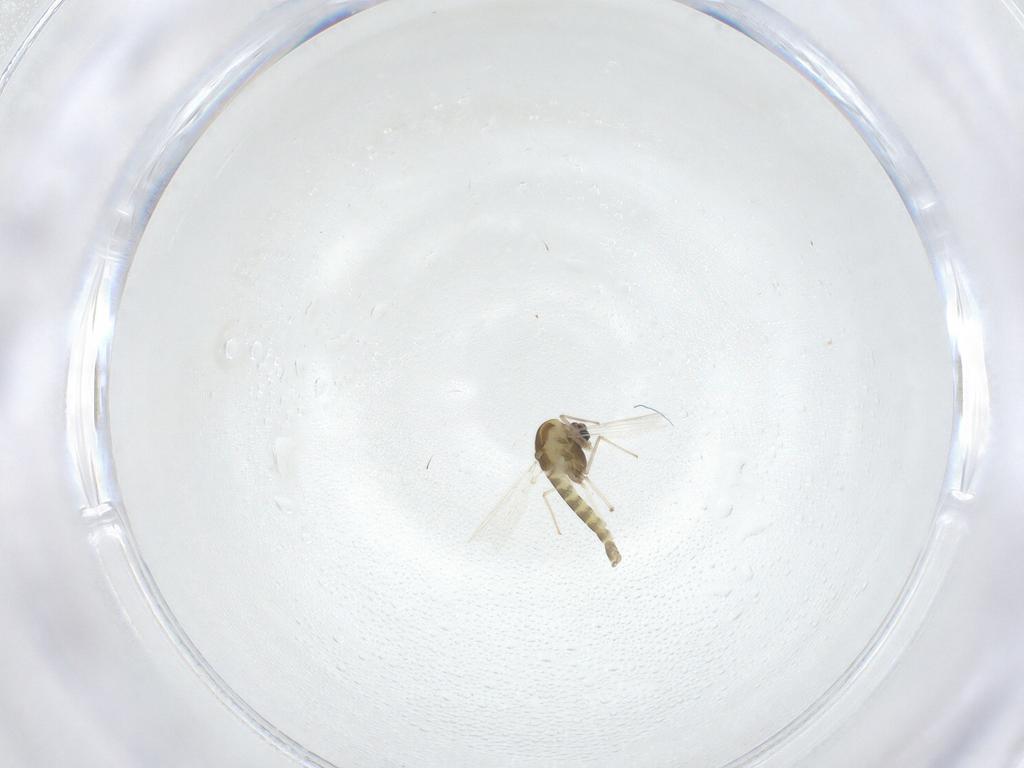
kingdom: Animalia
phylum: Arthropoda
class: Insecta
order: Diptera
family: Chironomidae
